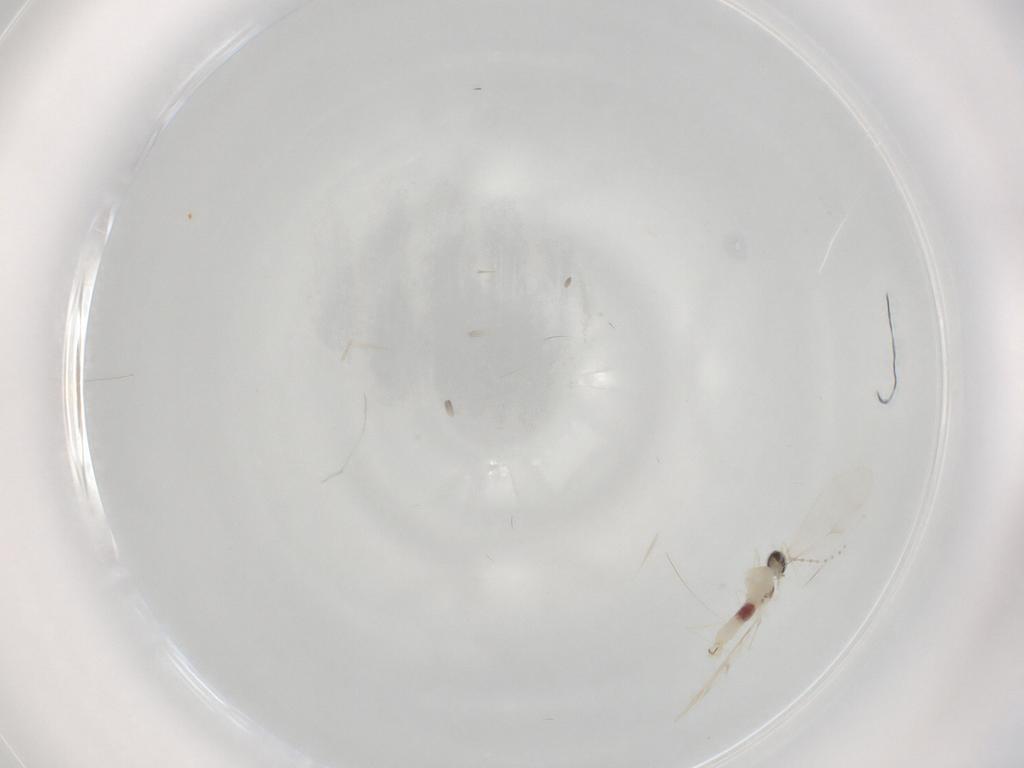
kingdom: Animalia
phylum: Arthropoda
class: Insecta
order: Diptera
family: Cecidomyiidae
